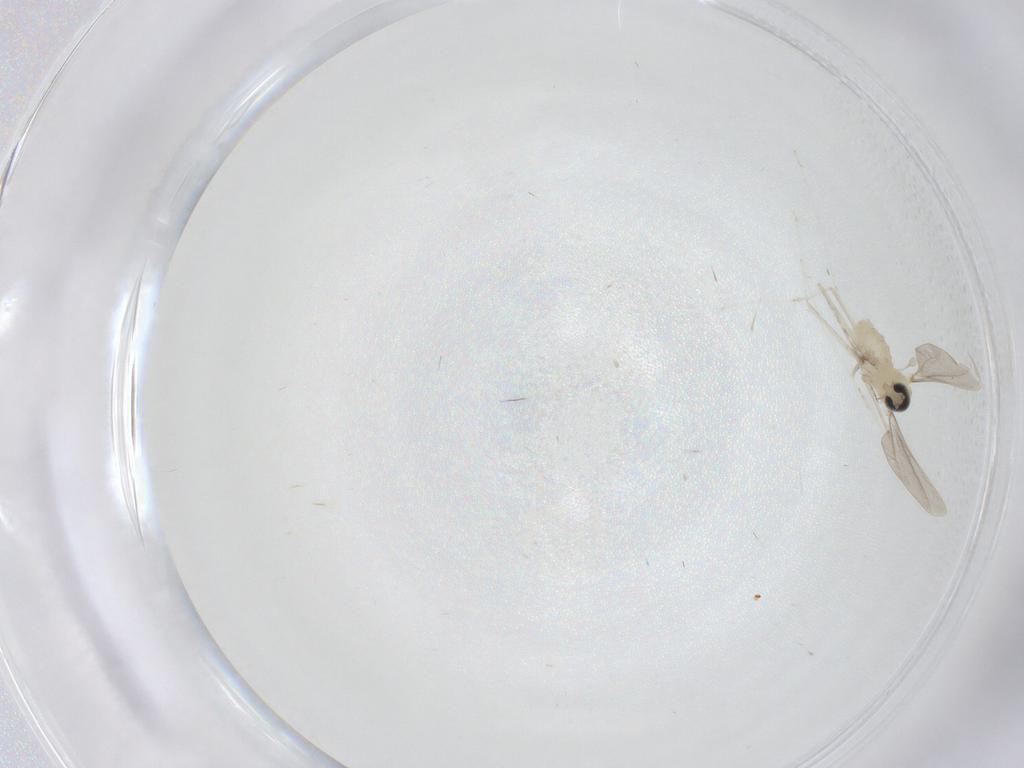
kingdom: Animalia
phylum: Arthropoda
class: Insecta
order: Diptera
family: Cecidomyiidae
